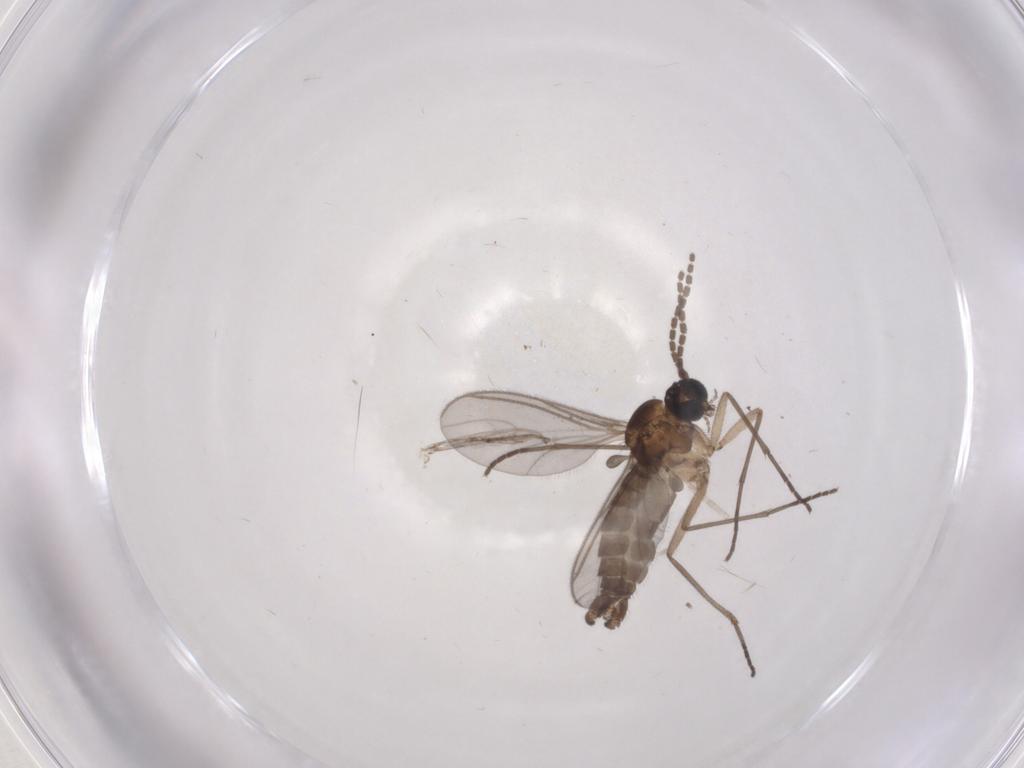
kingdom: Animalia
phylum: Arthropoda
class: Insecta
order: Diptera
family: Sciaridae
